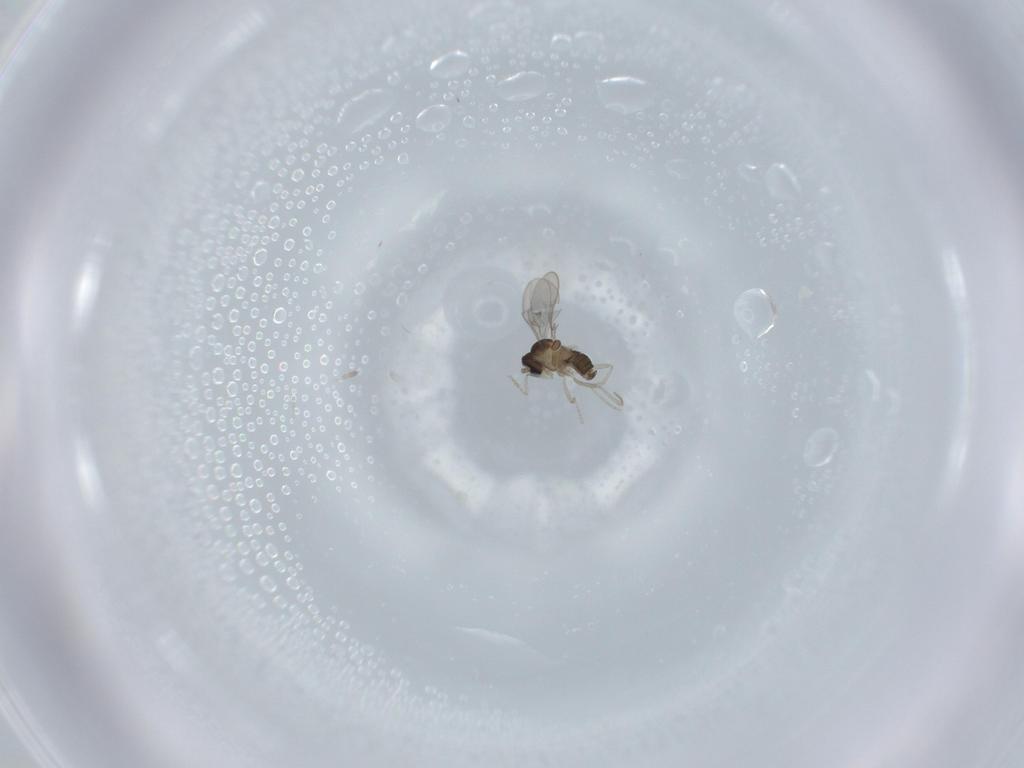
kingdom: Animalia
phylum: Arthropoda
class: Insecta
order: Diptera
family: Cecidomyiidae
